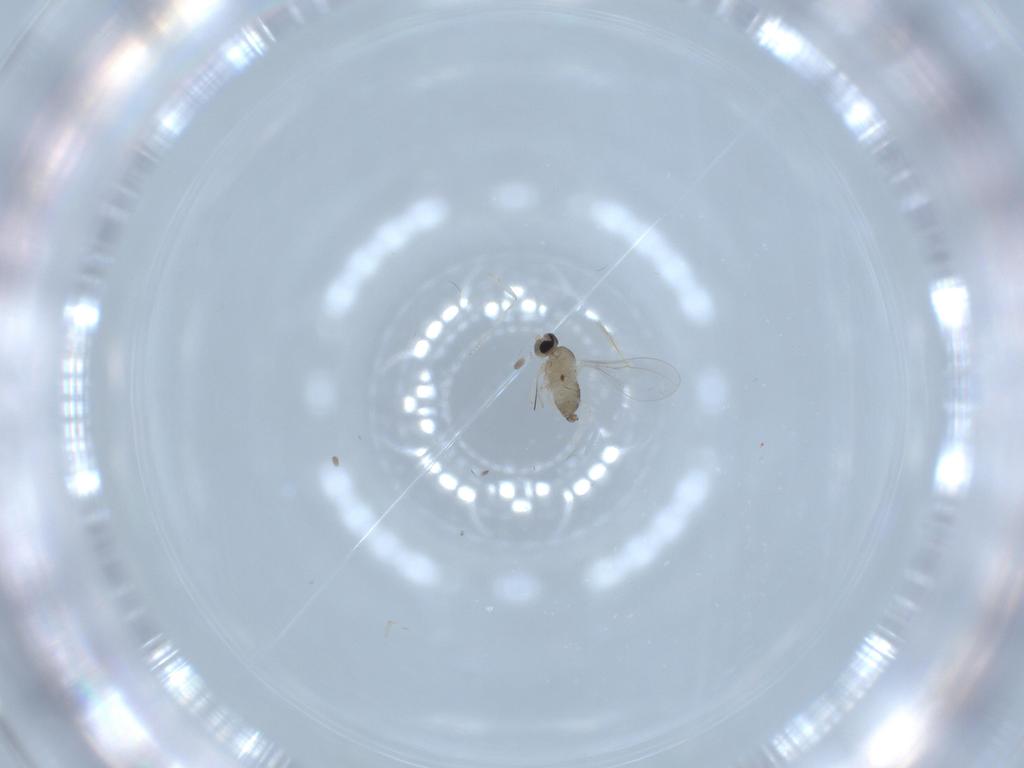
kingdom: Animalia
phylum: Arthropoda
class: Insecta
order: Diptera
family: Cecidomyiidae
